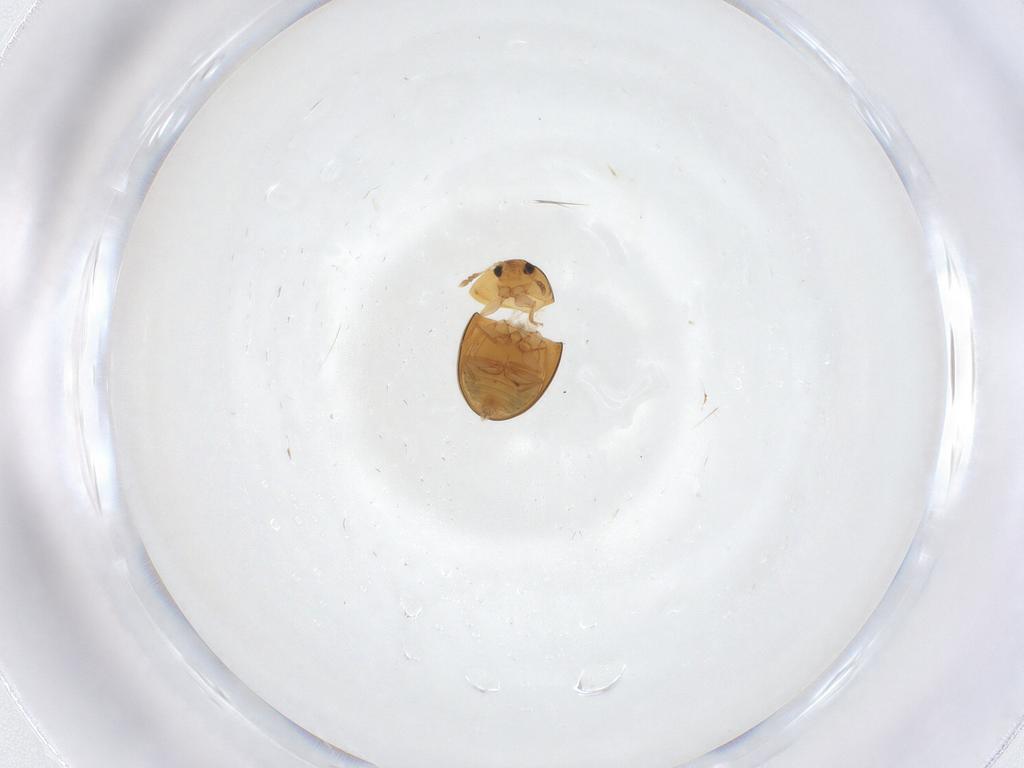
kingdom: Animalia
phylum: Arthropoda
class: Insecta
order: Coleoptera
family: Phalacridae
